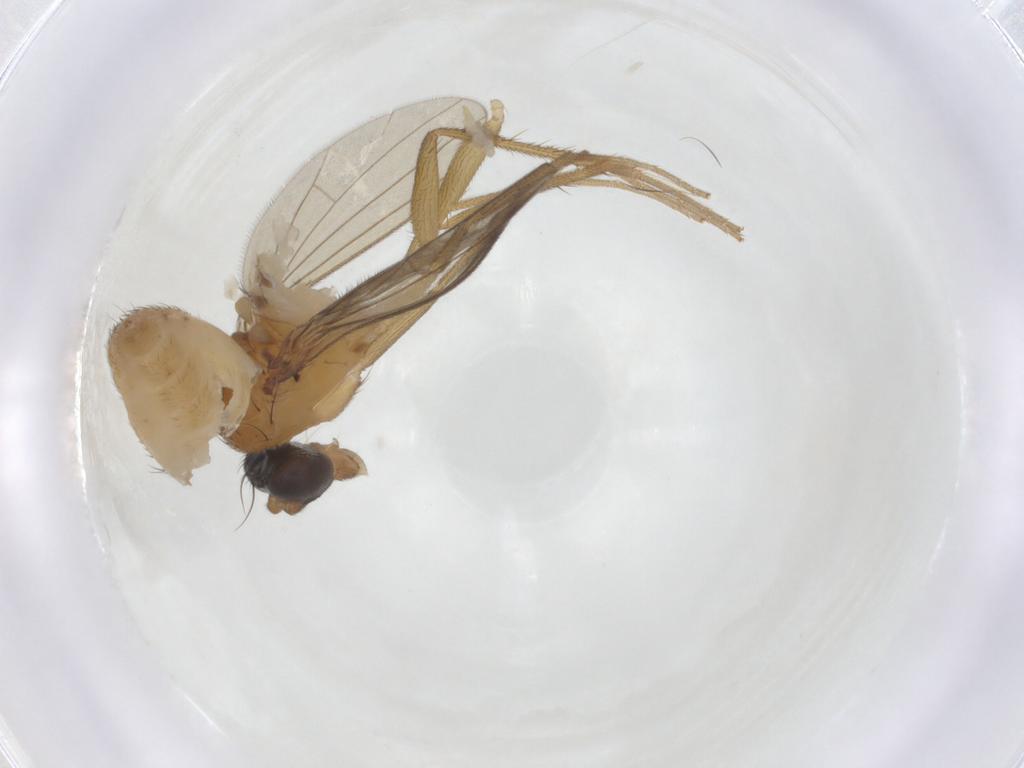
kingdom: Animalia
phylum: Arthropoda
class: Insecta
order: Diptera
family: Dolichopodidae
